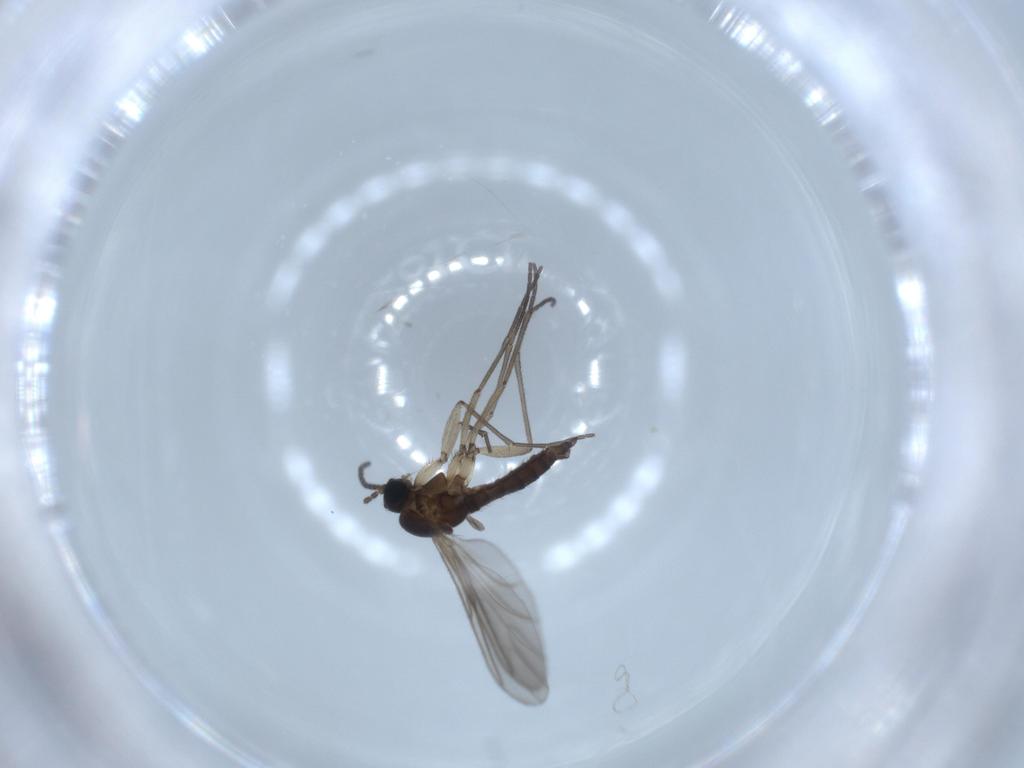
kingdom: Animalia
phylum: Arthropoda
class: Insecta
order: Diptera
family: Sciaridae
